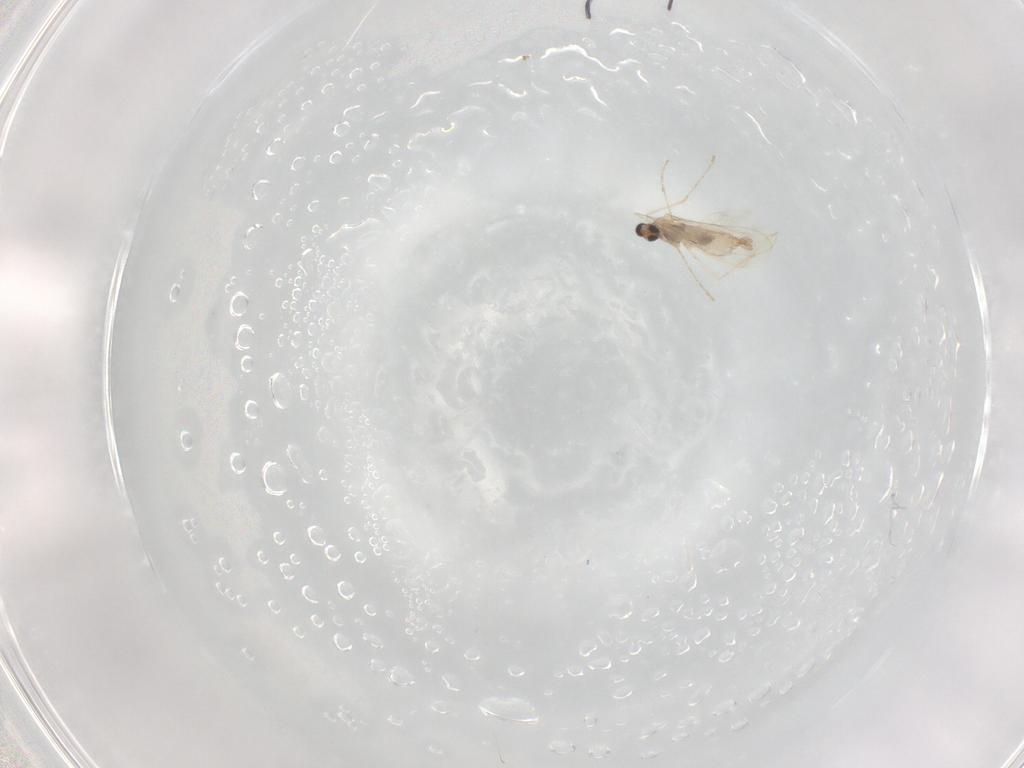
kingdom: Animalia
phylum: Arthropoda
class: Insecta
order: Diptera
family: Cecidomyiidae
